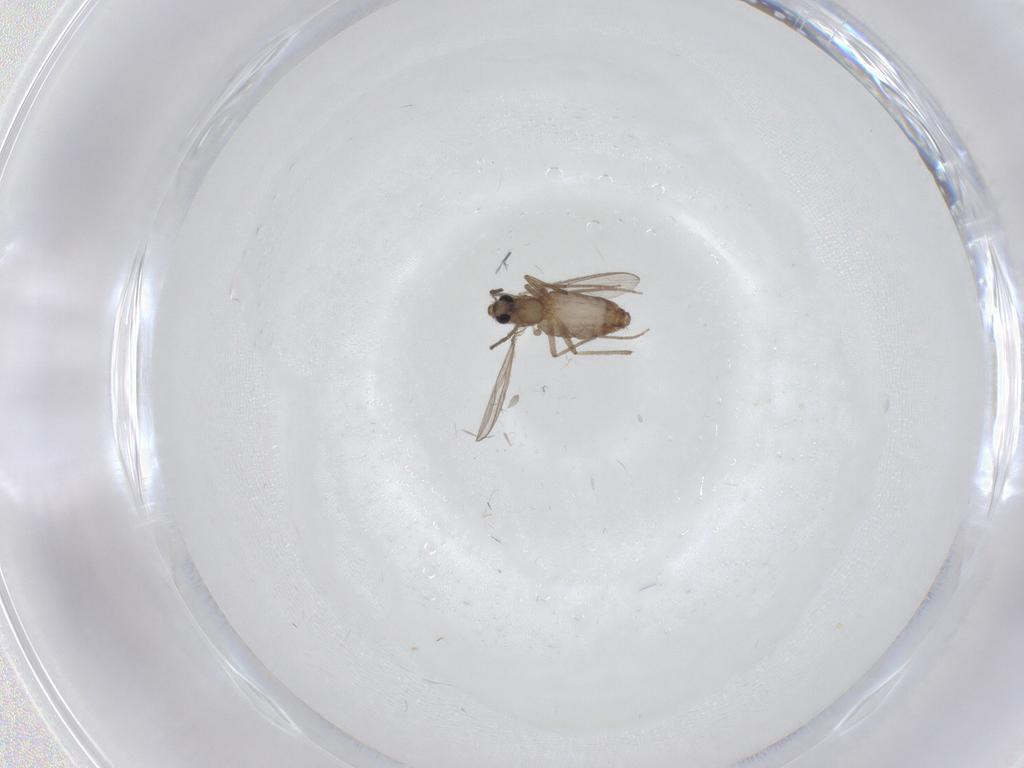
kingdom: Animalia
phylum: Arthropoda
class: Insecta
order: Diptera
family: Chironomidae
